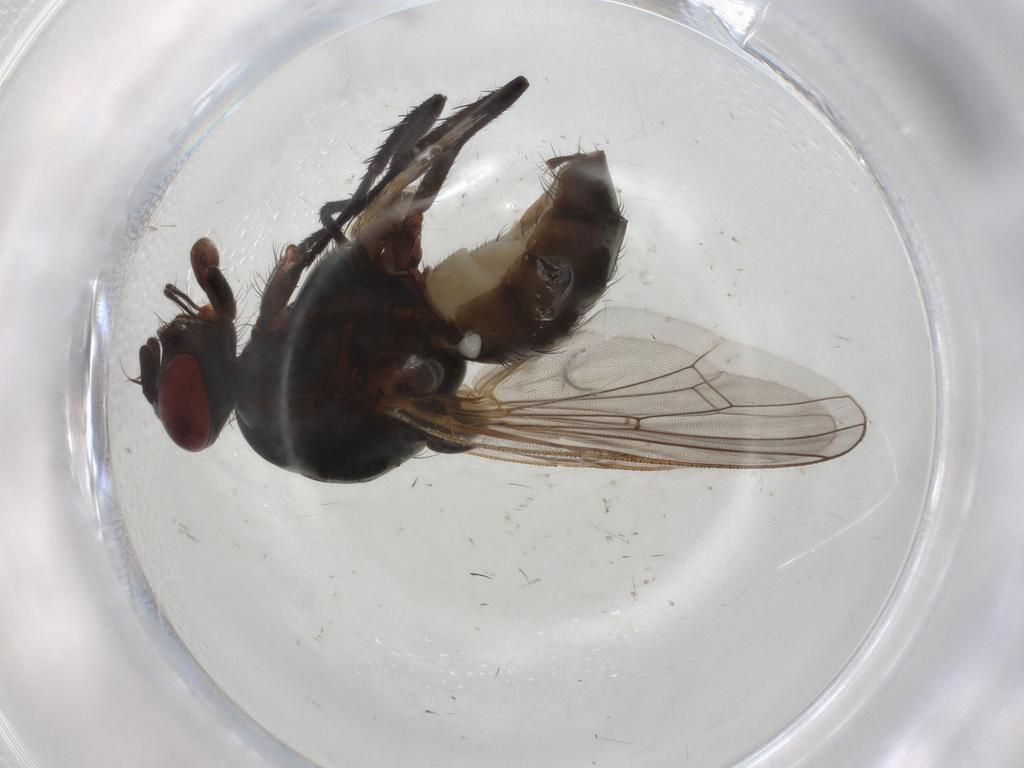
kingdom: Animalia
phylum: Arthropoda
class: Insecta
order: Diptera
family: Anthomyiidae
